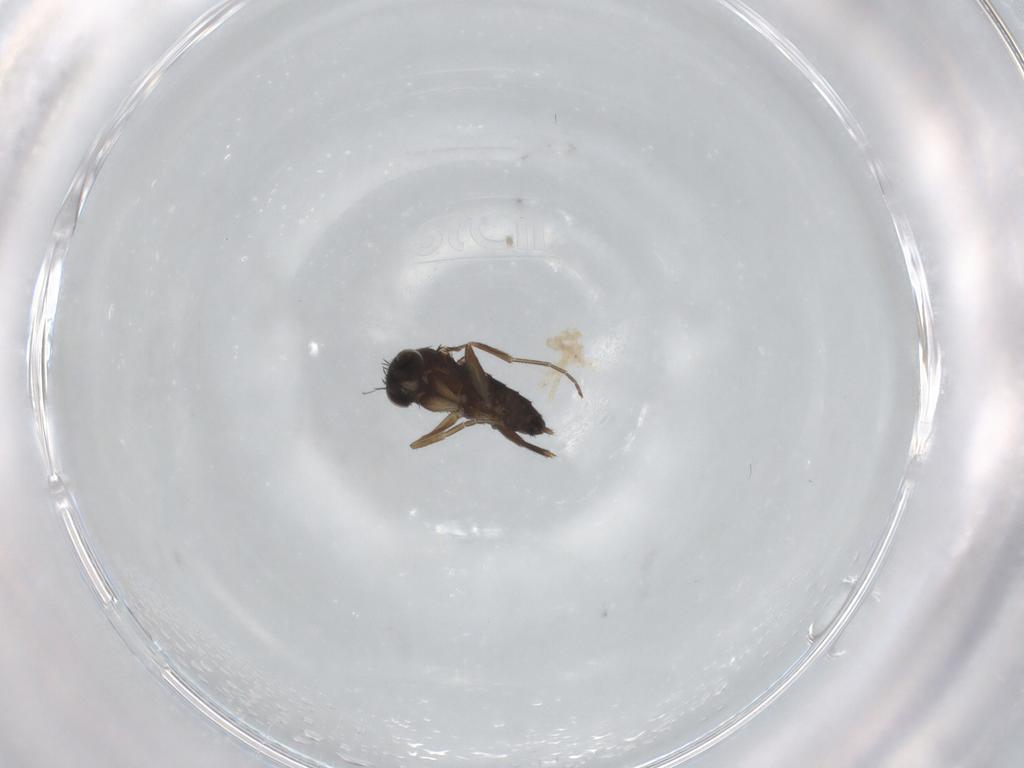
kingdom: Animalia
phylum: Arthropoda
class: Insecta
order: Diptera
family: Phoridae
